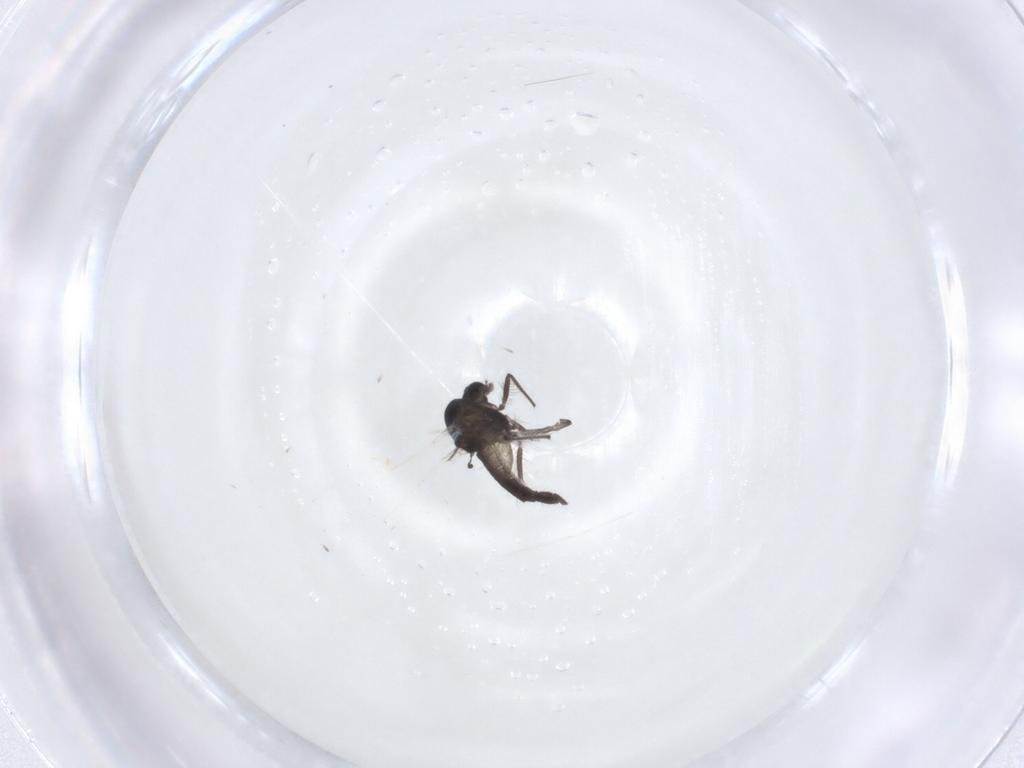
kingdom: Animalia
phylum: Arthropoda
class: Insecta
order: Diptera
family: Chironomidae
